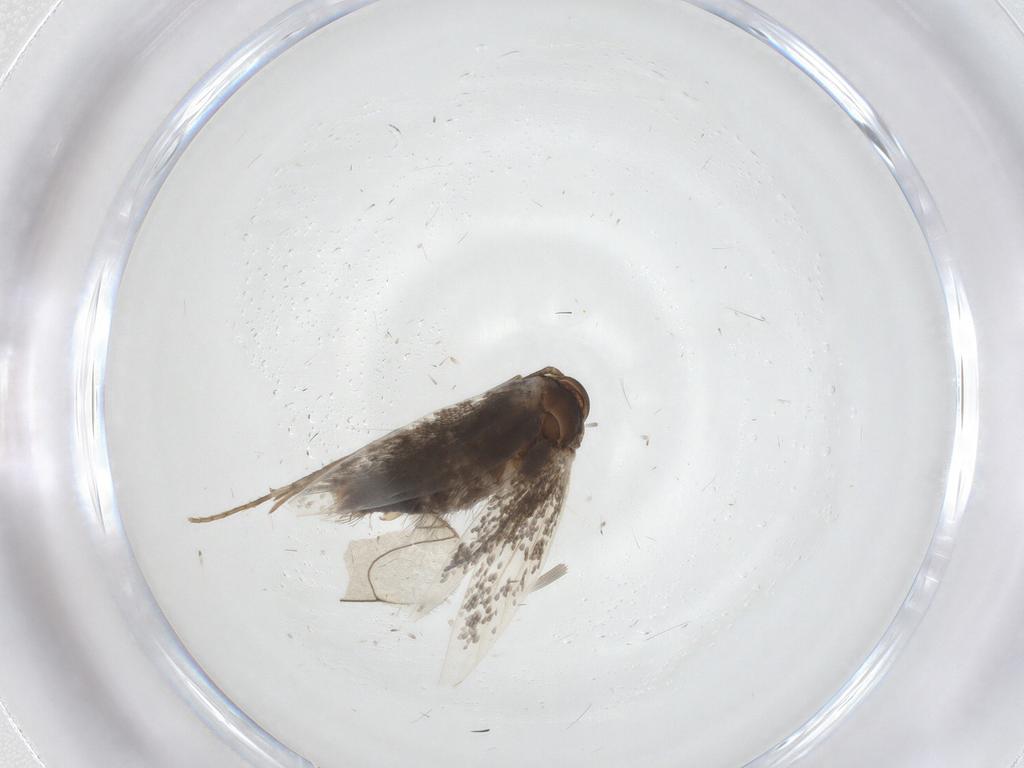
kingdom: Animalia
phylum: Arthropoda
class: Insecta
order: Lepidoptera
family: Elachistidae
